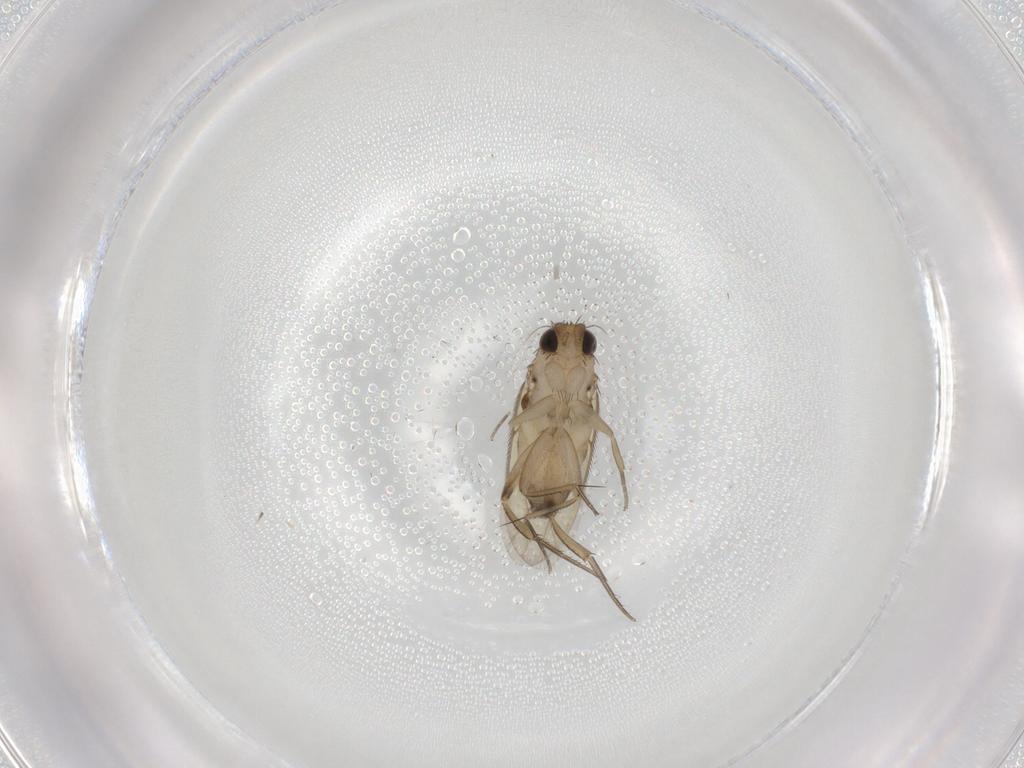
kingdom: Animalia
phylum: Arthropoda
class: Insecta
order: Diptera
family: Phoridae
